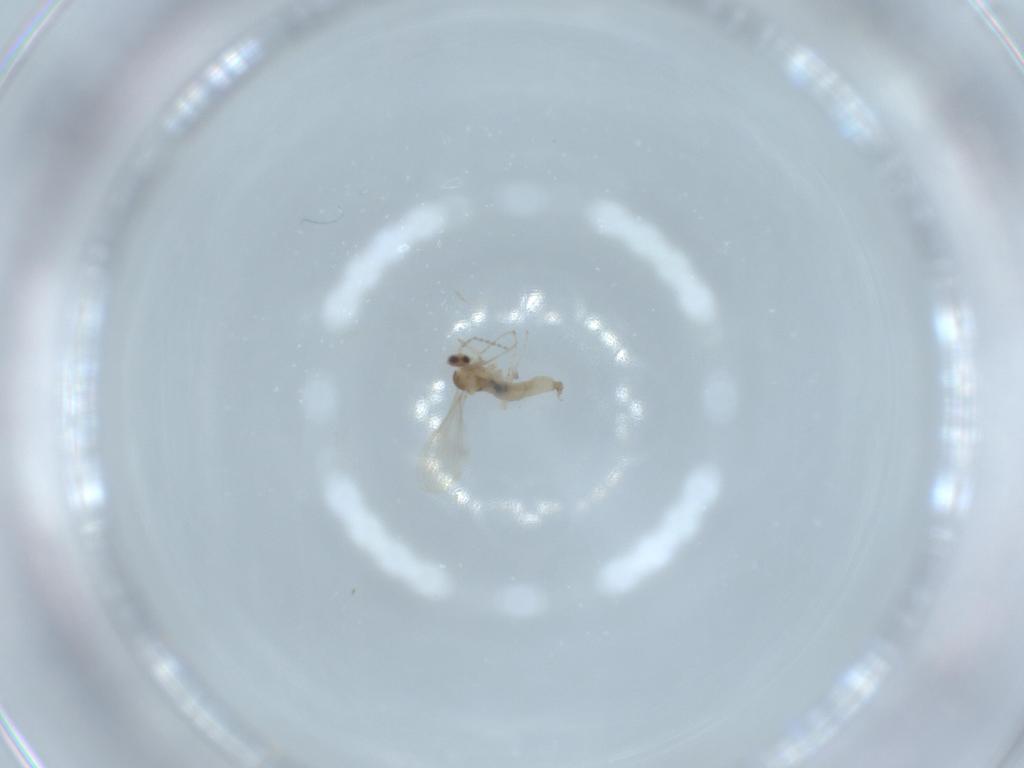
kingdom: Animalia
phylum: Arthropoda
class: Insecta
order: Diptera
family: Cecidomyiidae
